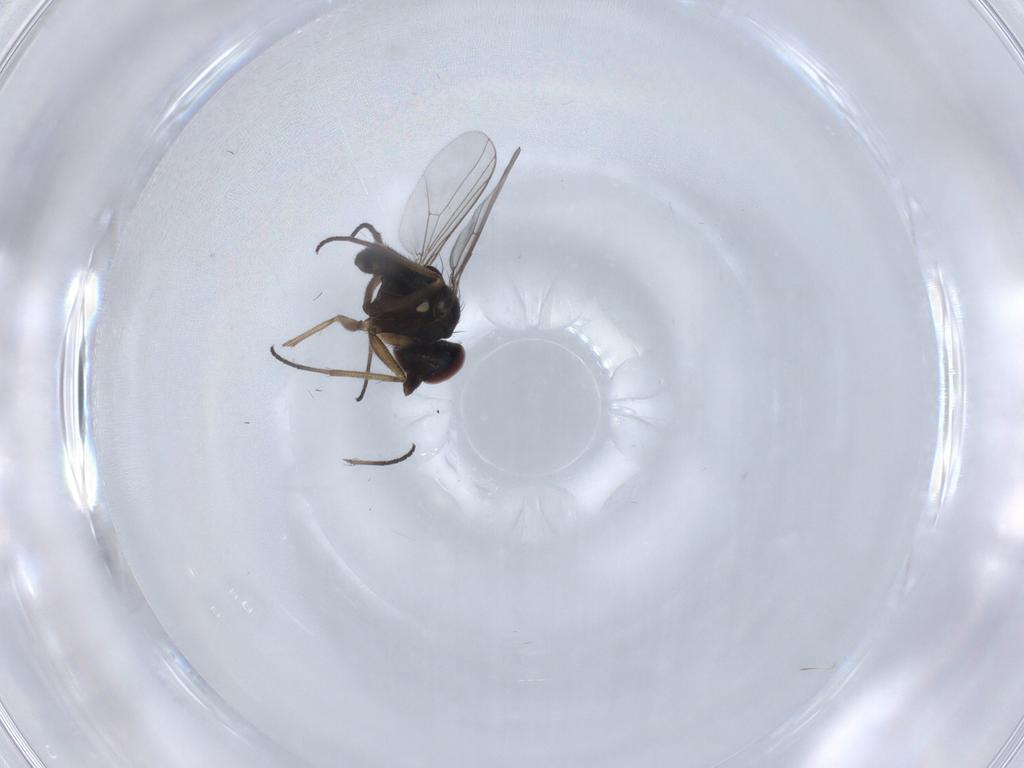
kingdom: Animalia
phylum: Arthropoda
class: Insecta
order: Diptera
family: Dolichopodidae
